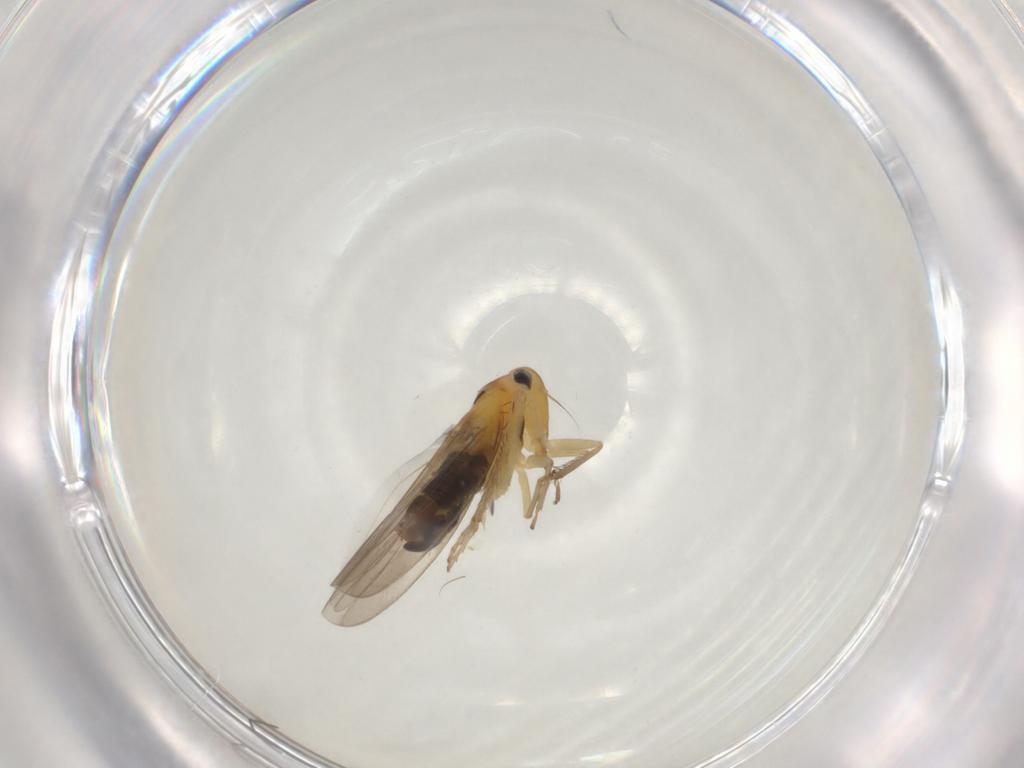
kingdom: Animalia
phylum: Arthropoda
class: Insecta
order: Hemiptera
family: Cicadellidae
